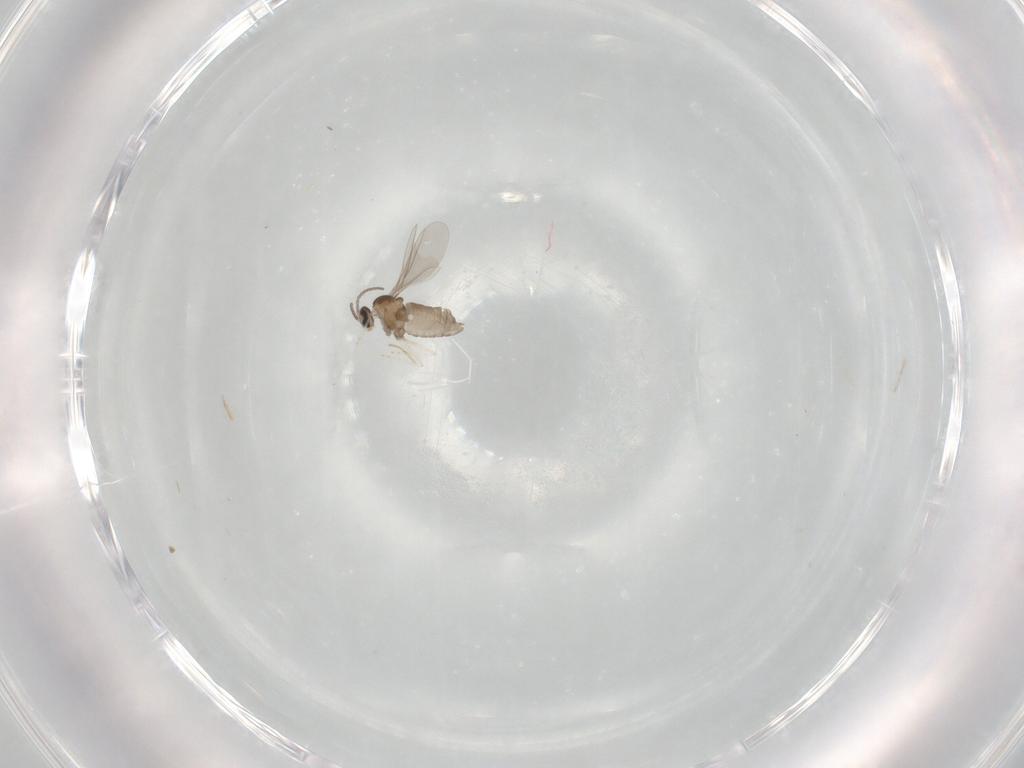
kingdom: Animalia
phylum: Arthropoda
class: Insecta
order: Diptera
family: Cecidomyiidae
